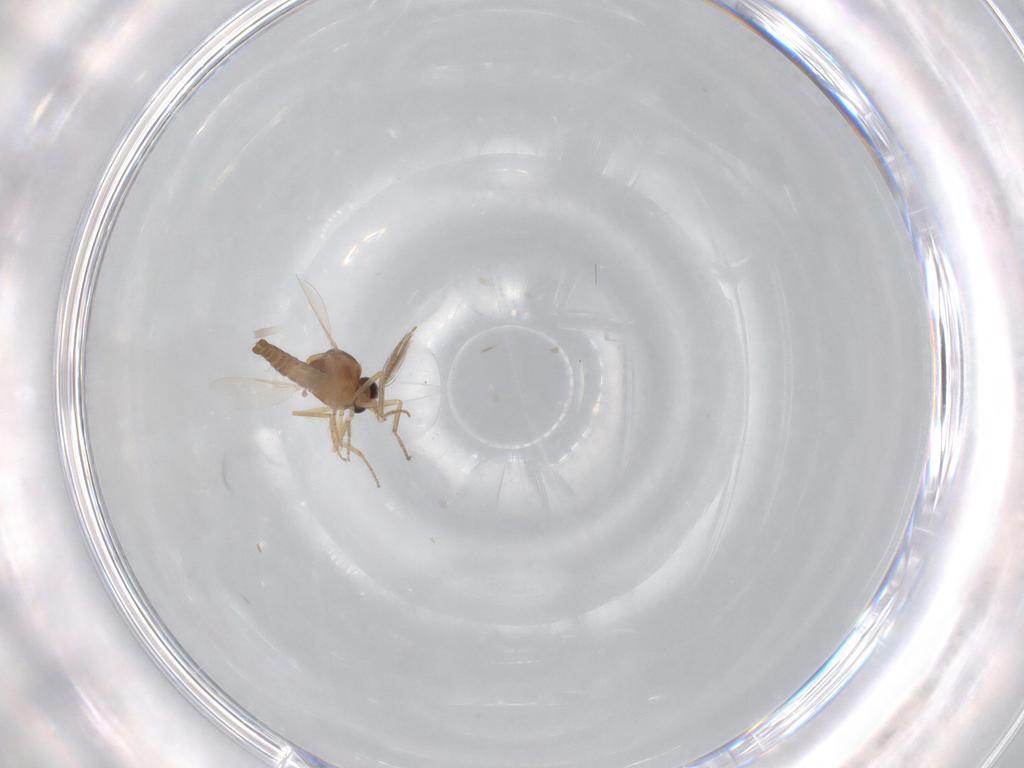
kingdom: Animalia
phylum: Arthropoda
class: Insecta
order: Diptera
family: Ceratopogonidae
